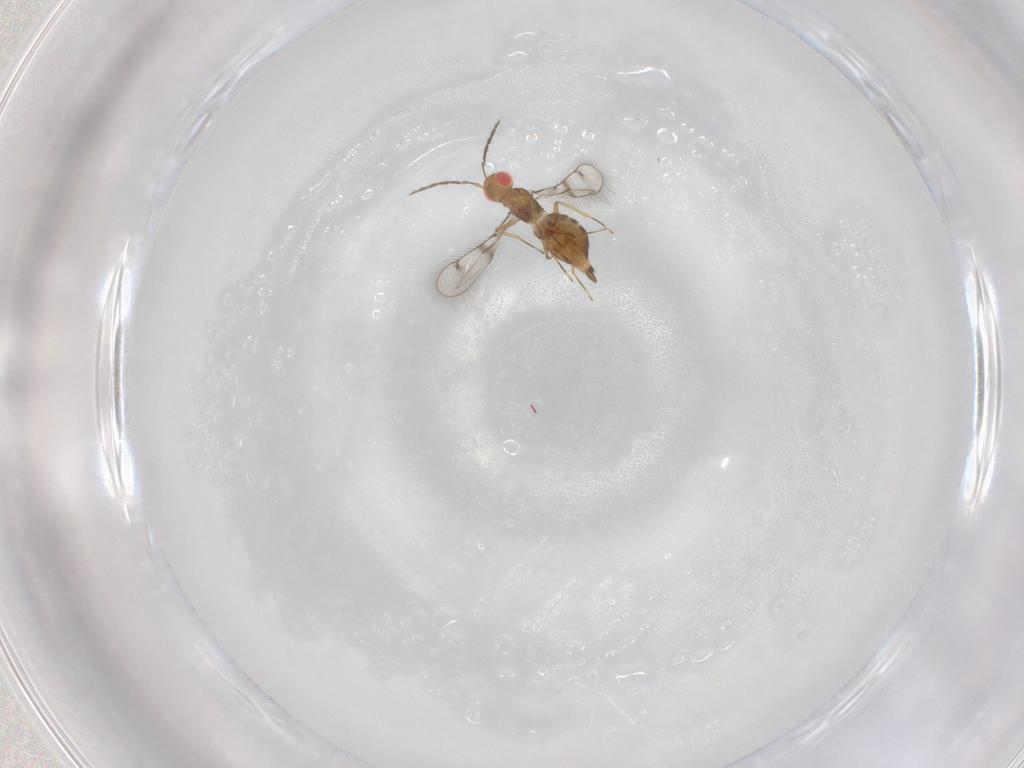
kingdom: Animalia
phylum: Arthropoda
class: Insecta
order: Hymenoptera
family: Eulophidae
